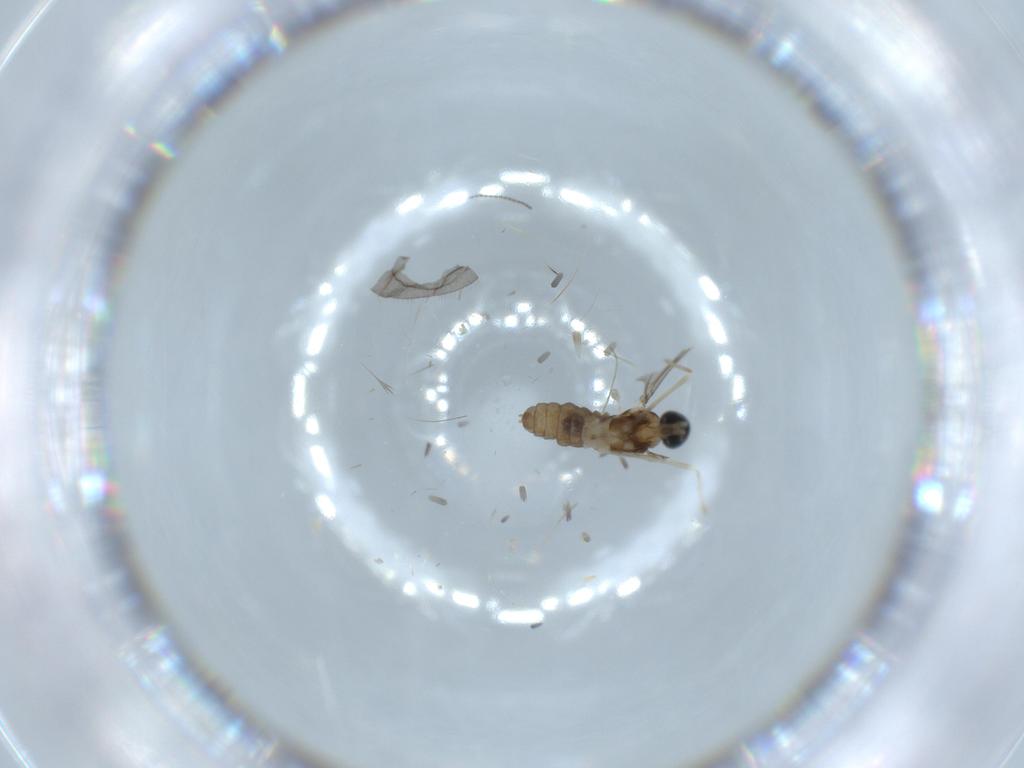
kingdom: Animalia
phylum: Arthropoda
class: Insecta
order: Diptera
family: Cecidomyiidae
